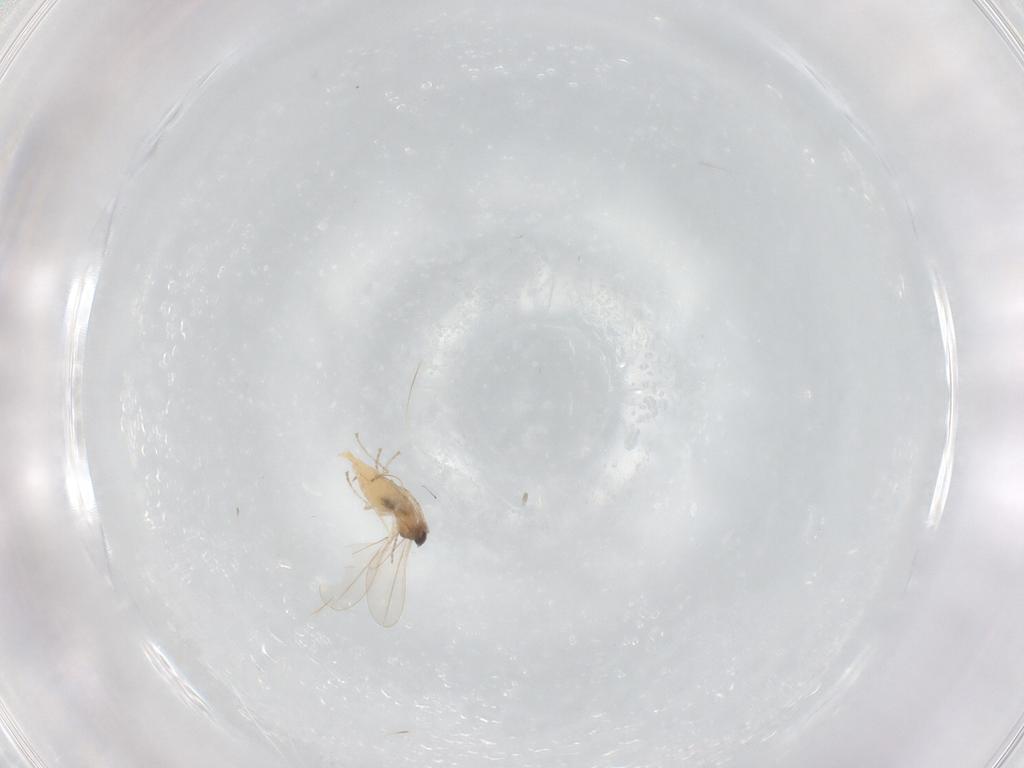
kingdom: Animalia
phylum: Arthropoda
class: Insecta
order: Diptera
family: Cecidomyiidae
